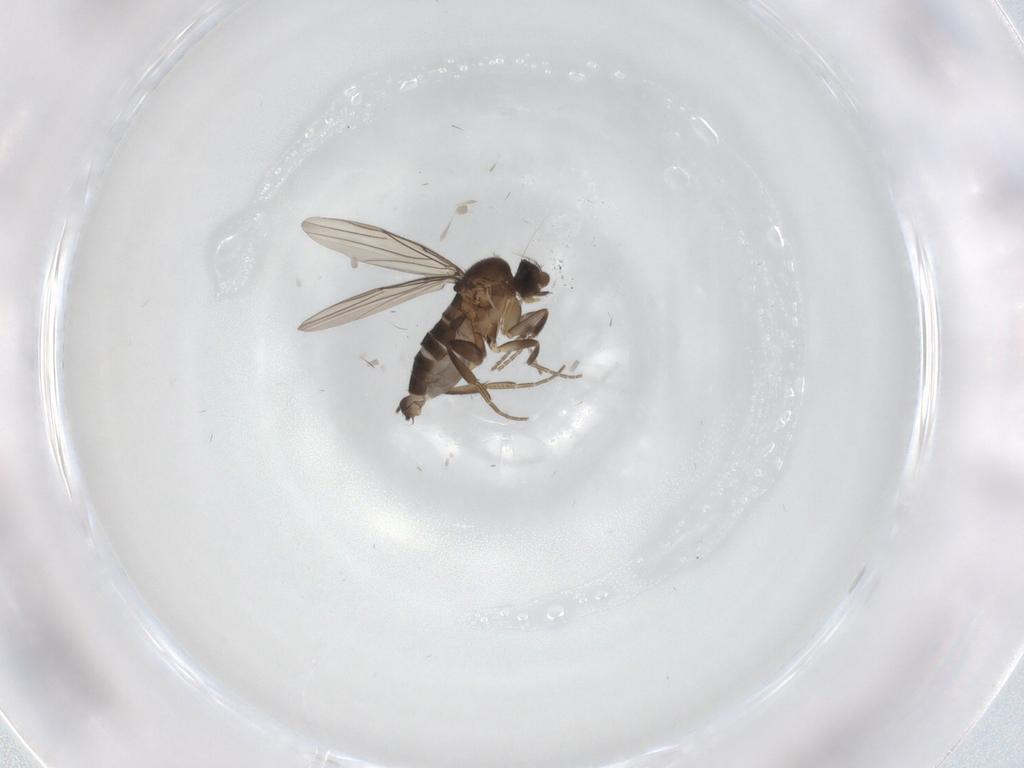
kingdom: Animalia
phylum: Arthropoda
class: Insecta
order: Diptera
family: Phoridae
